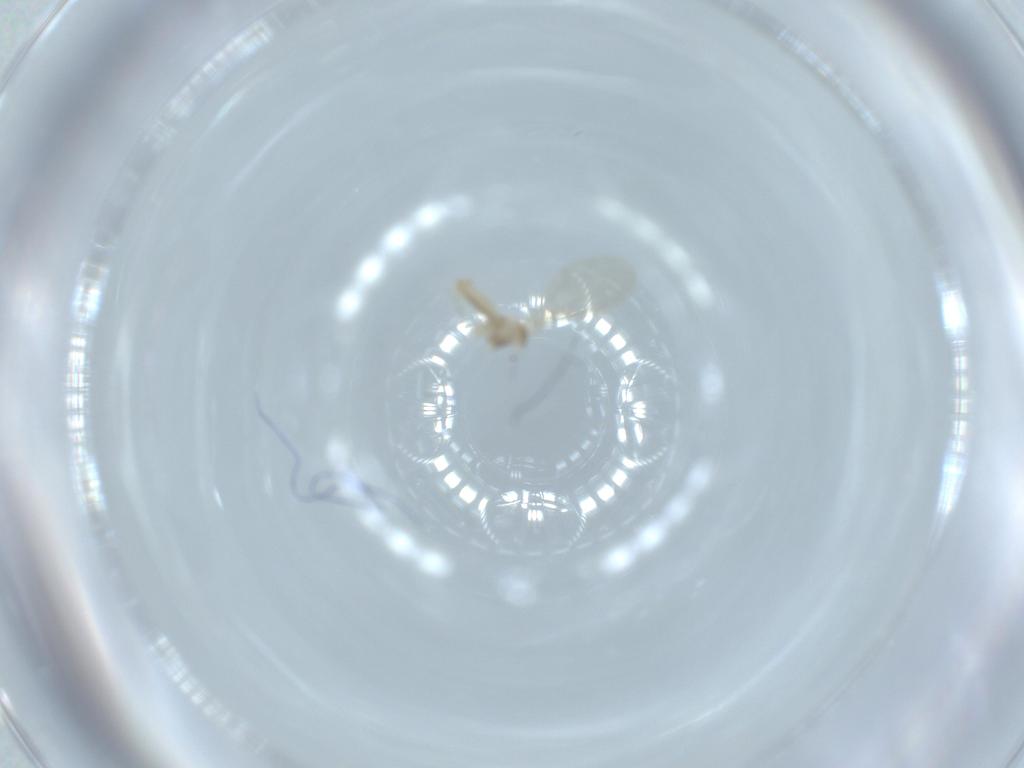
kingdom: Animalia
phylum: Arthropoda
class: Insecta
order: Diptera
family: Cecidomyiidae
